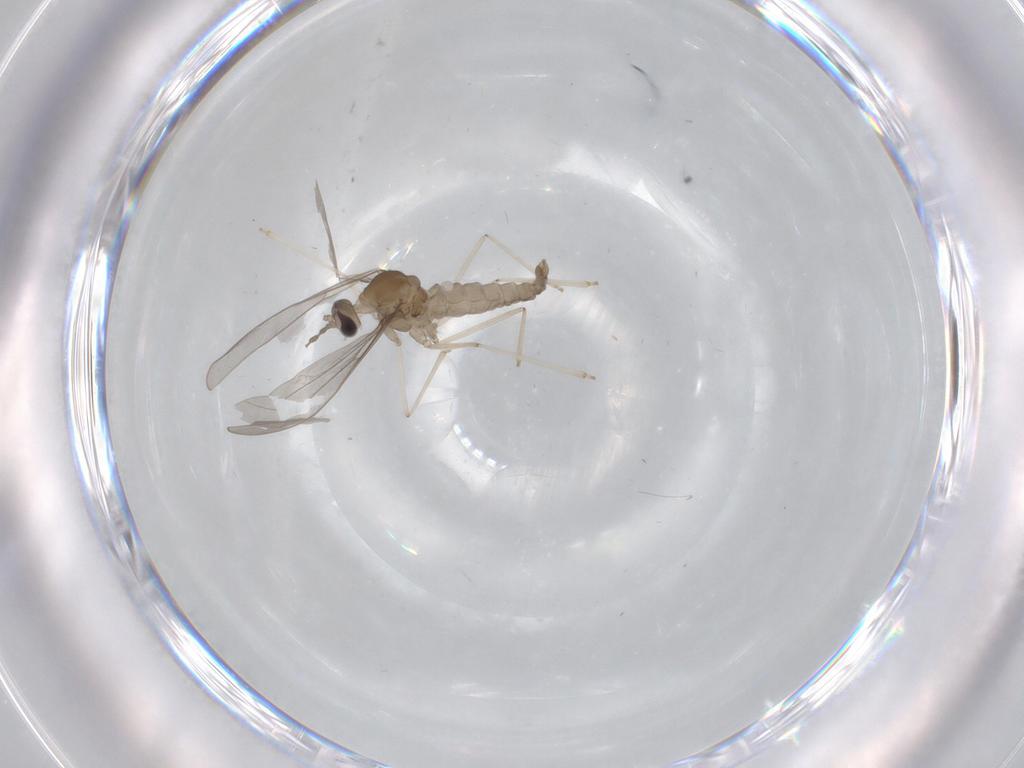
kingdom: Animalia
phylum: Arthropoda
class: Insecta
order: Diptera
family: Cecidomyiidae
